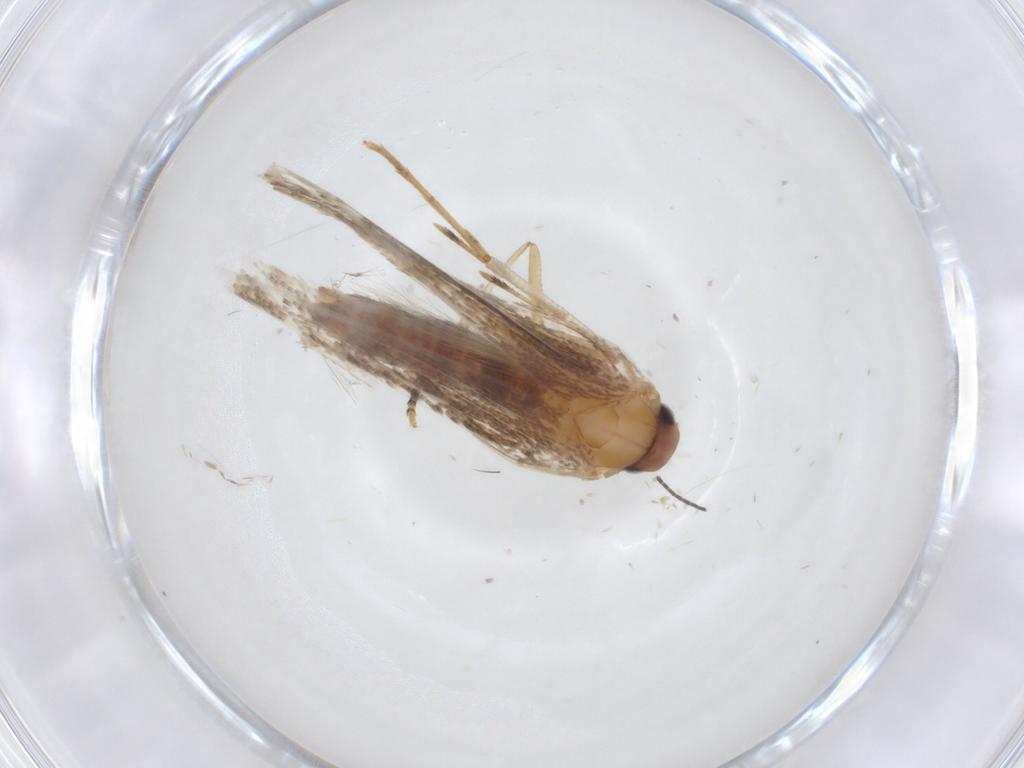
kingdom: Animalia
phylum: Arthropoda
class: Insecta
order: Lepidoptera
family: Cosmopterigidae
